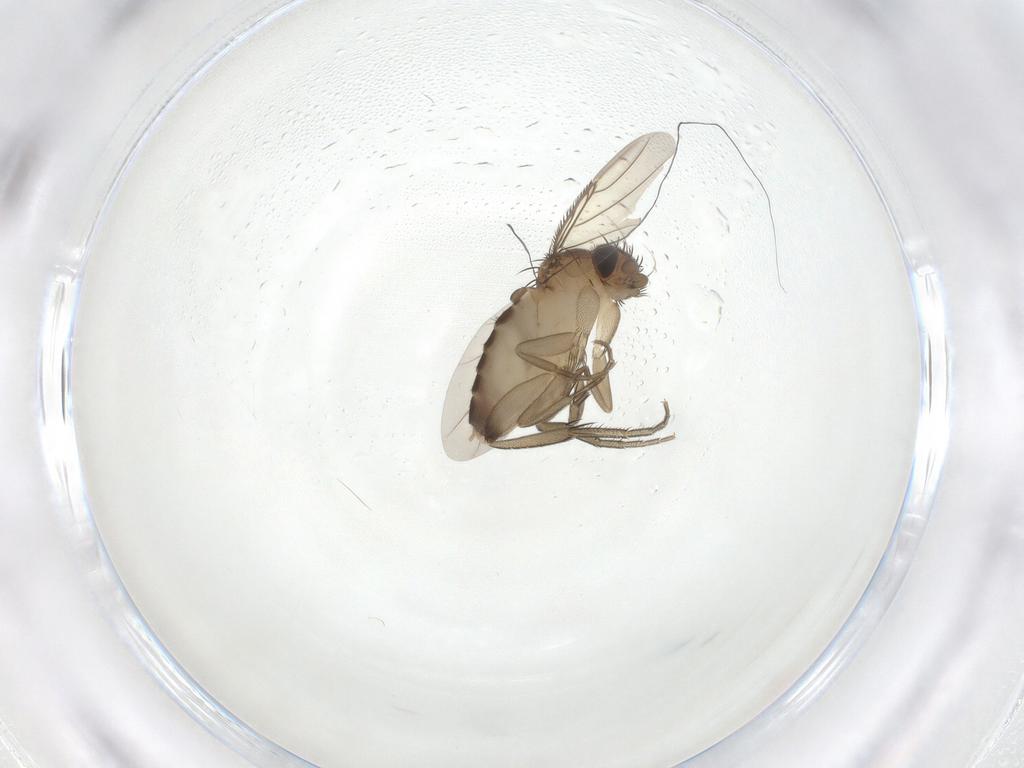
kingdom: Animalia
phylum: Arthropoda
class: Insecta
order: Diptera
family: Phoridae
